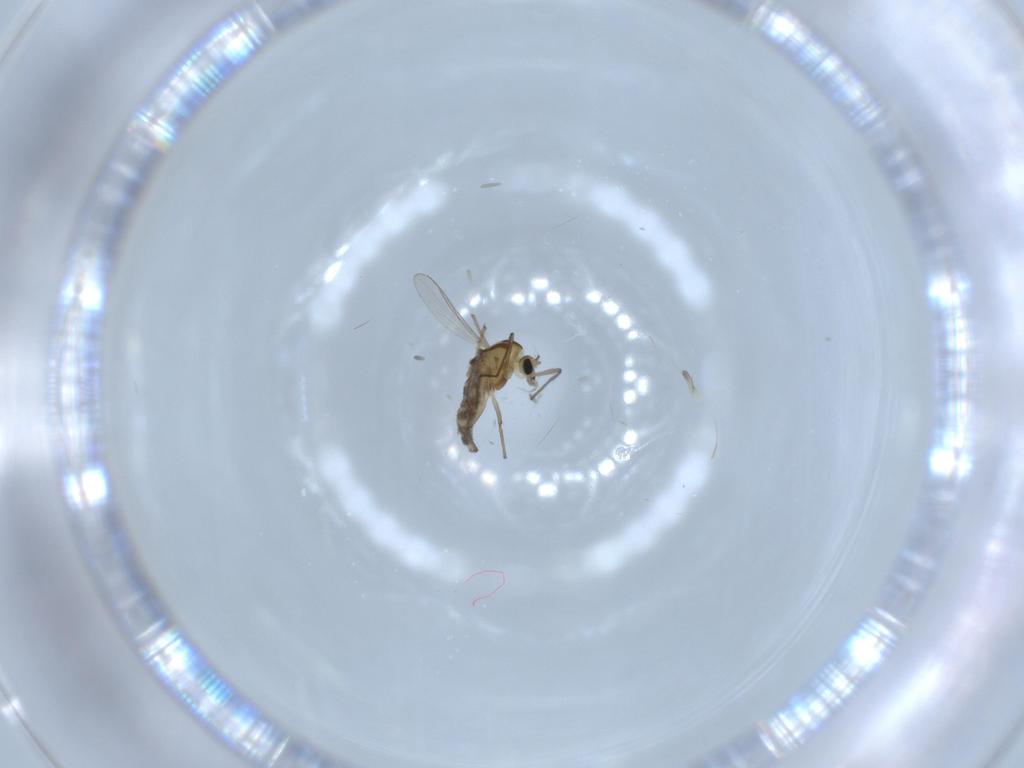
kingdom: Animalia
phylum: Arthropoda
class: Insecta
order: Diptera
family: Chironomidae
